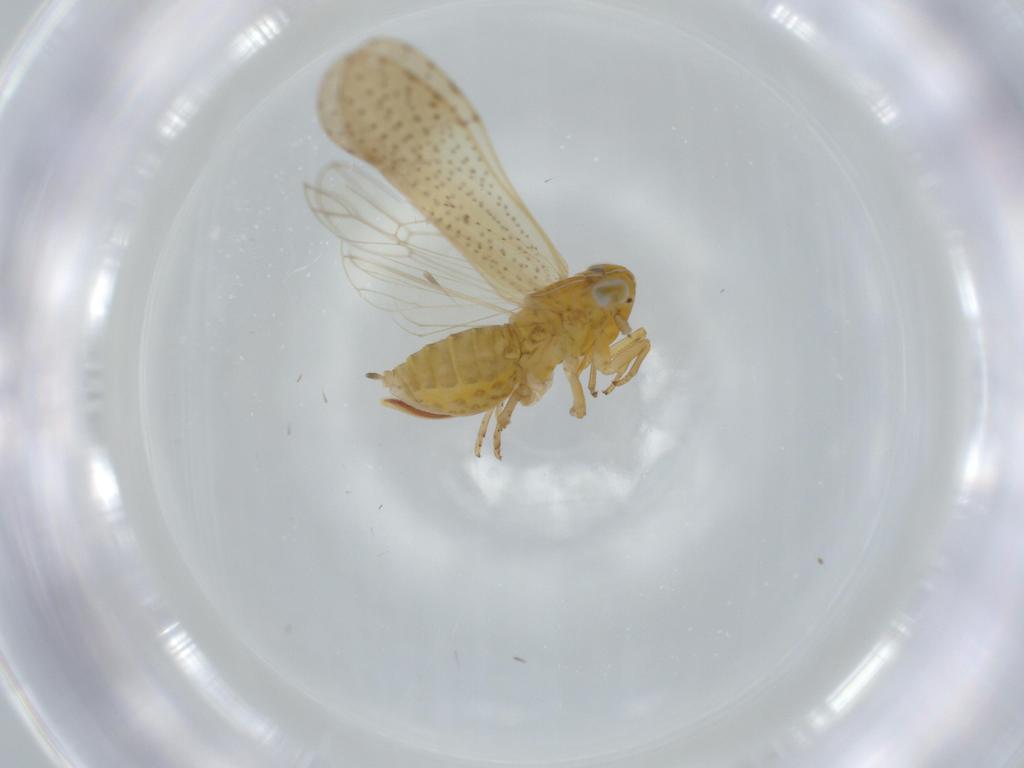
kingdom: Animalia
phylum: Arthropoda
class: Insecta
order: Hemiptera
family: Delphacidae
